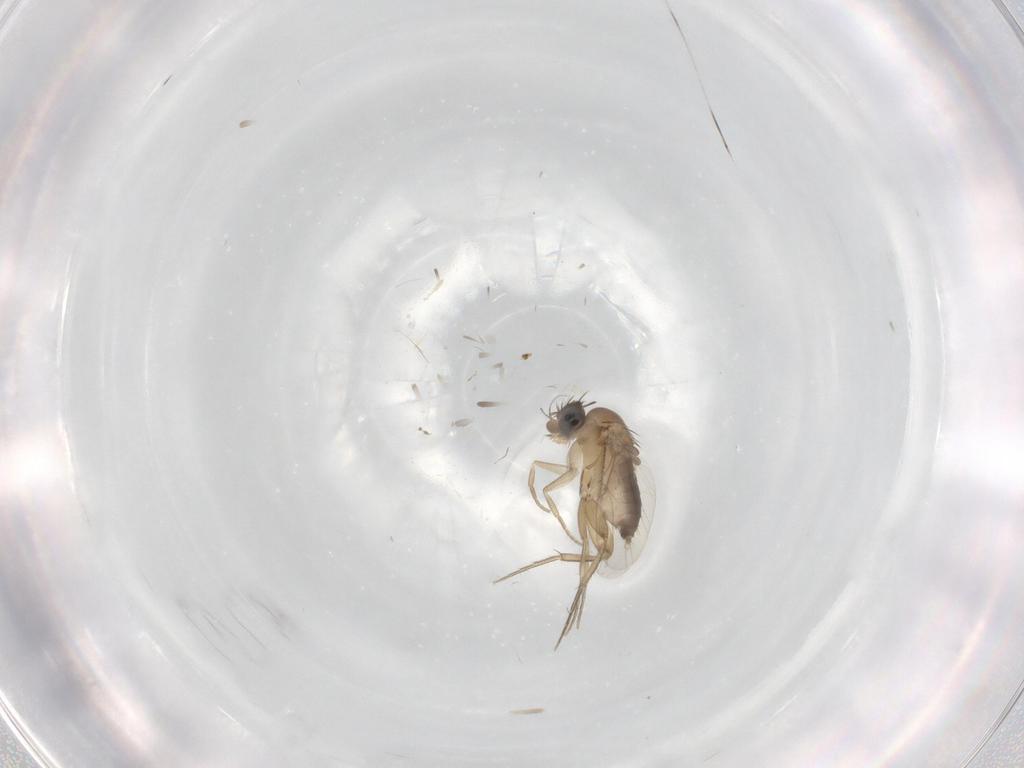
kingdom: Animalia
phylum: Arthropoda
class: Insecta
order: Diptera
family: Phoridae
